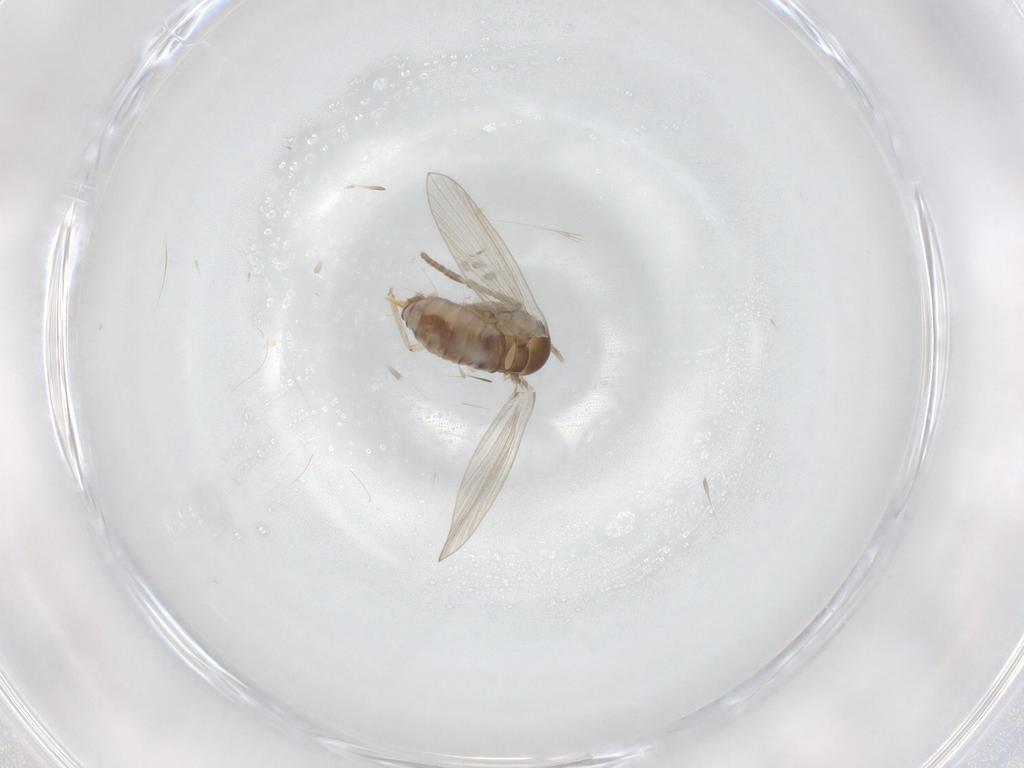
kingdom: Animalia
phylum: Arthropoda
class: Insecta
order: Diptera
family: Psychodidae
